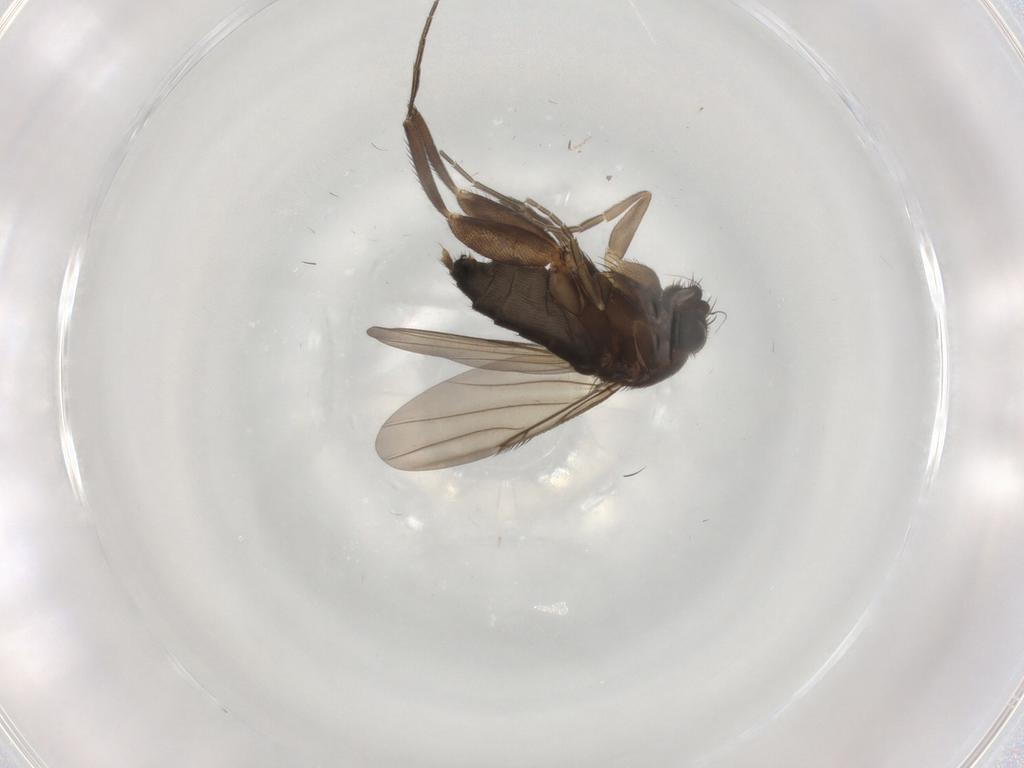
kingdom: Animalia
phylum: Arthropoda
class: Insecta
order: Diptera
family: Phoridae
